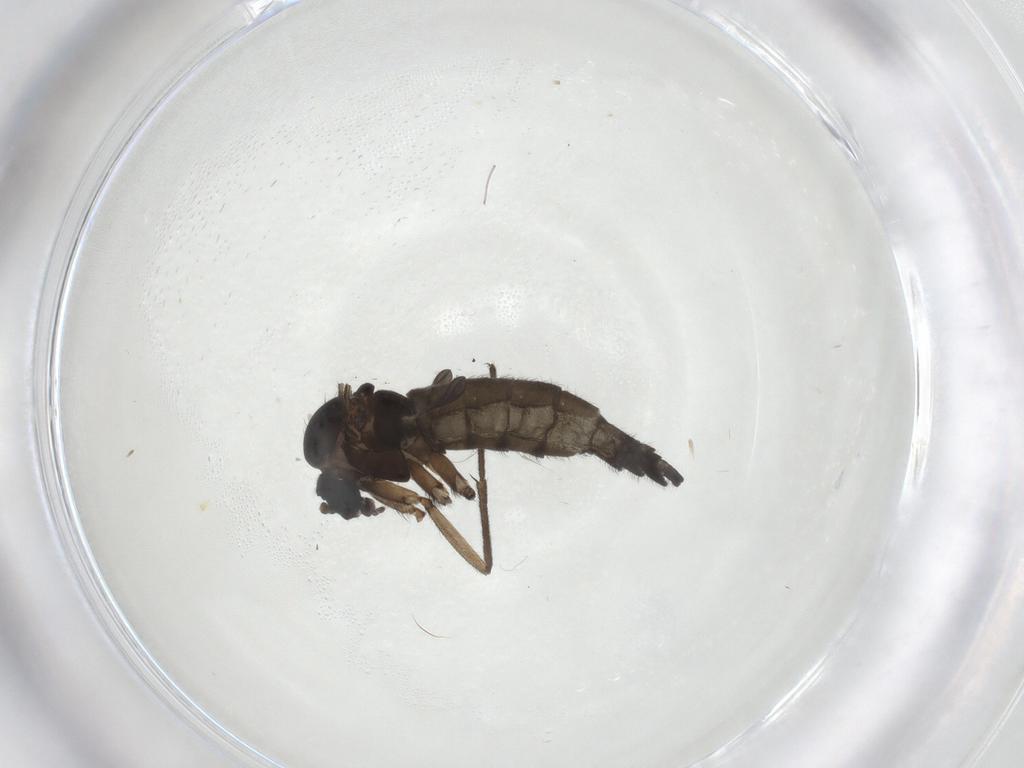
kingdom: Animalia
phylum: Arthropoda
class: Insecta
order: Diptera
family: Sciaridae
